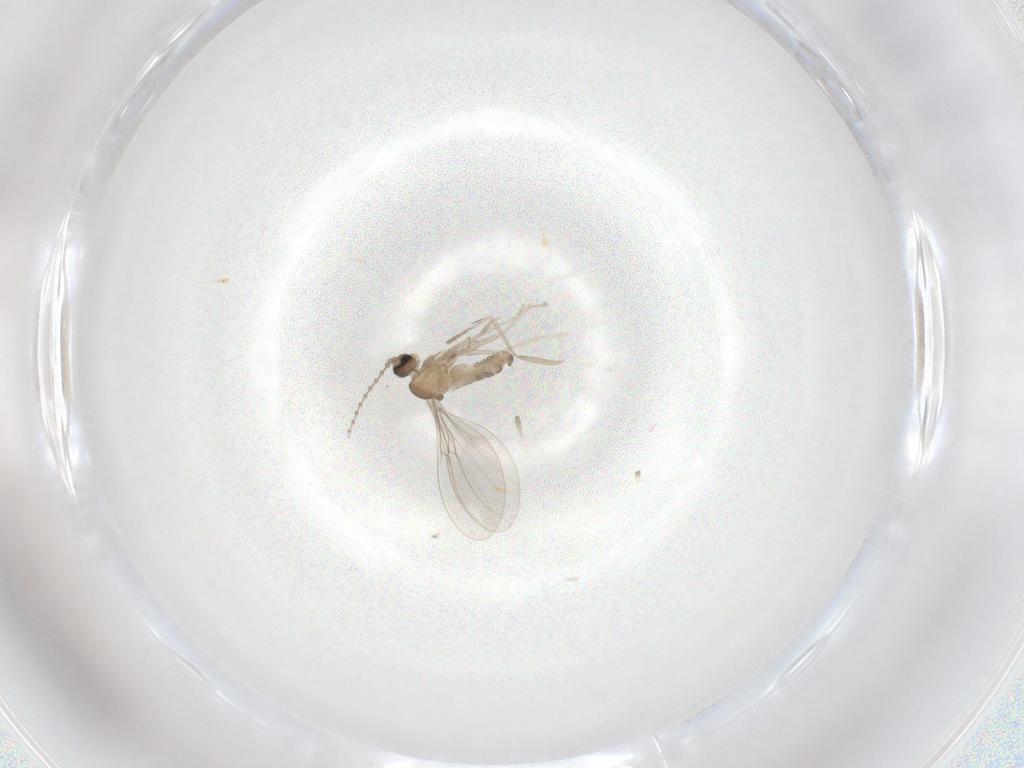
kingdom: Animalia
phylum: Arthropoda
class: Insecta
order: Diptera
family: Cecidomyiidae
